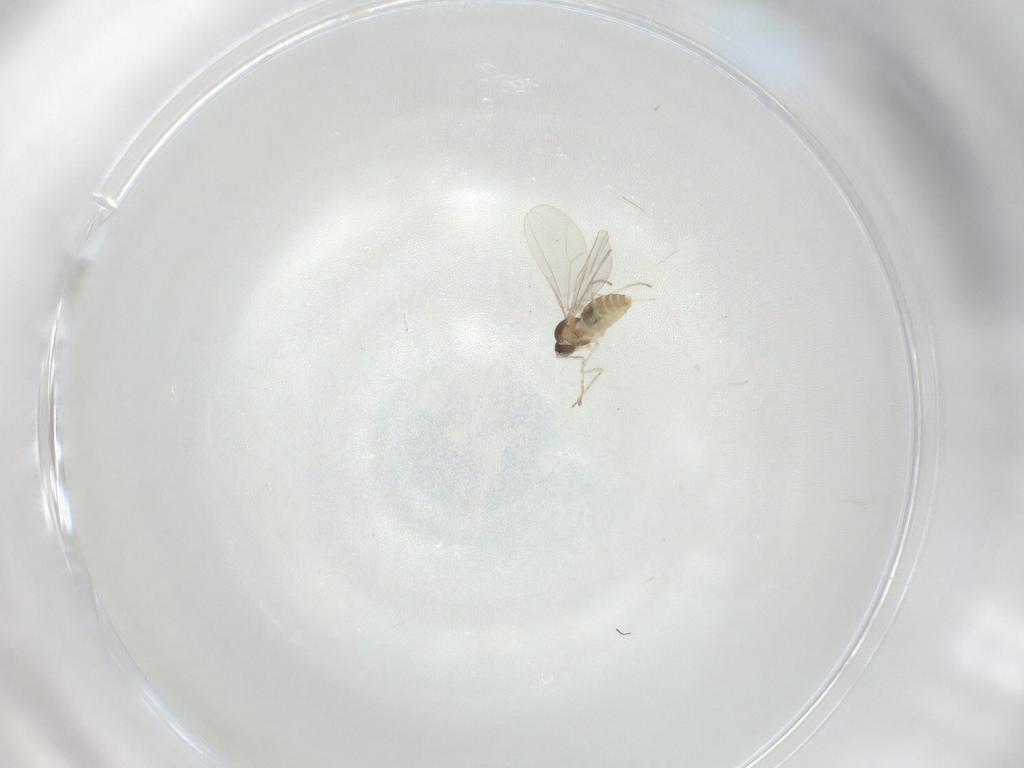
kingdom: Animalia
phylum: Arthropoda
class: Insecta
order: Diptera
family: Cecidomyiidae
